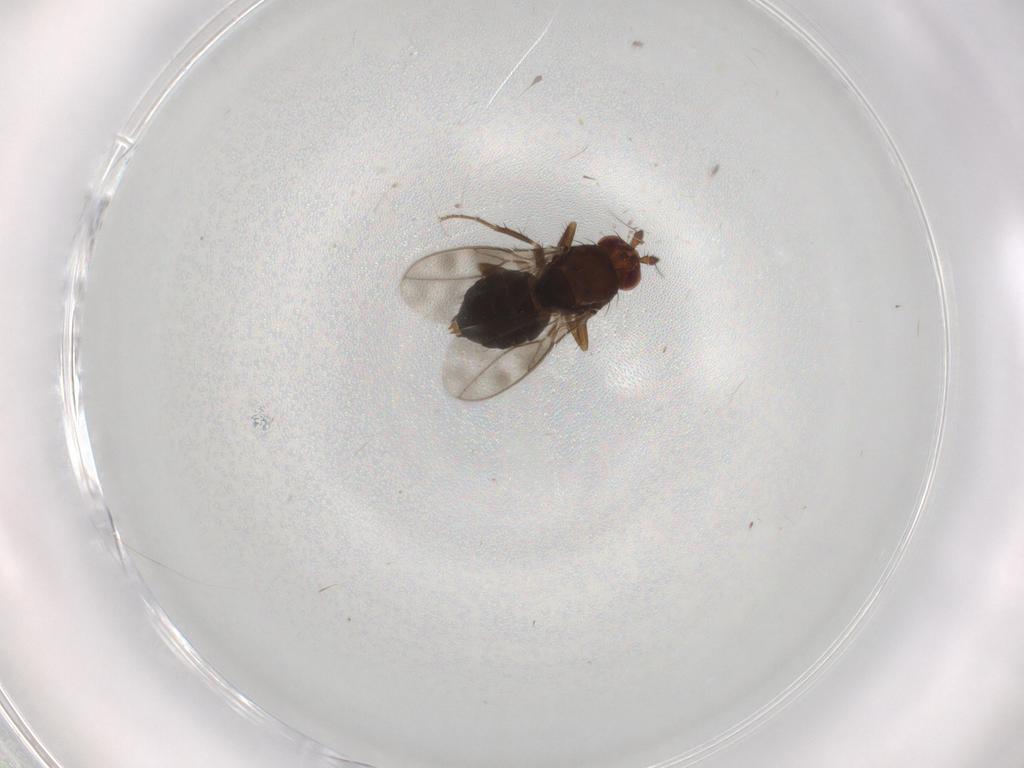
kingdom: Animalia
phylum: Arthropoda
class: Insecta
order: Diptera
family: Sphaeroceridae
